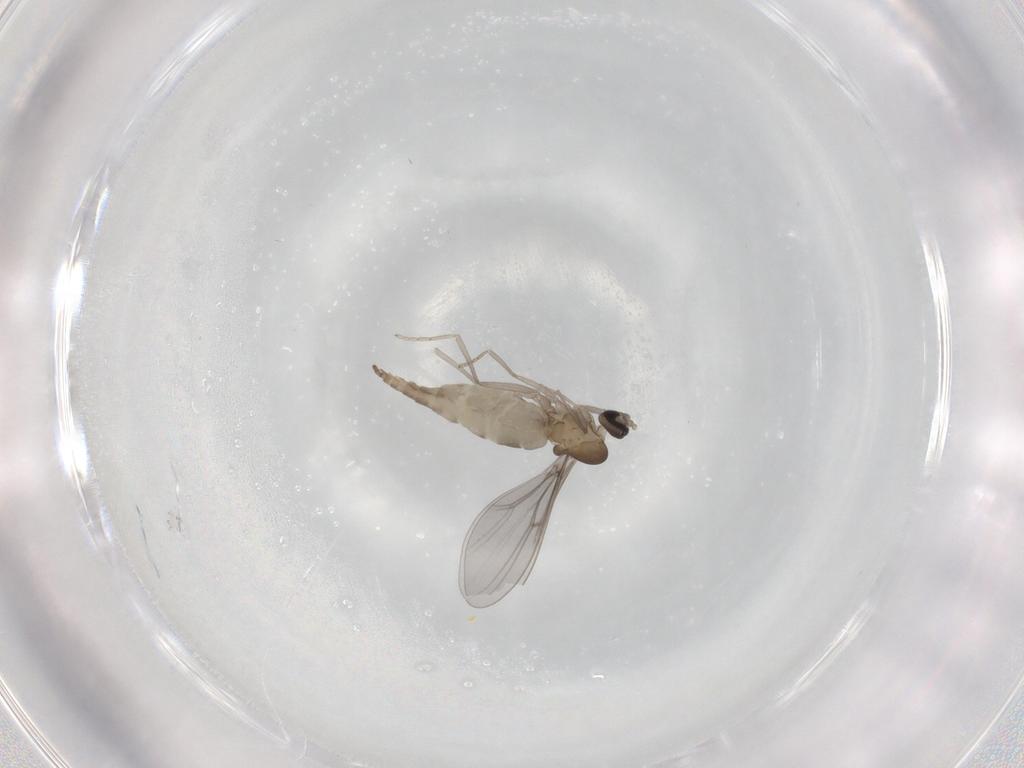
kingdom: Animalia
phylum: Arthropoda
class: Insecta
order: Diptera
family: Cecidomyiidae
